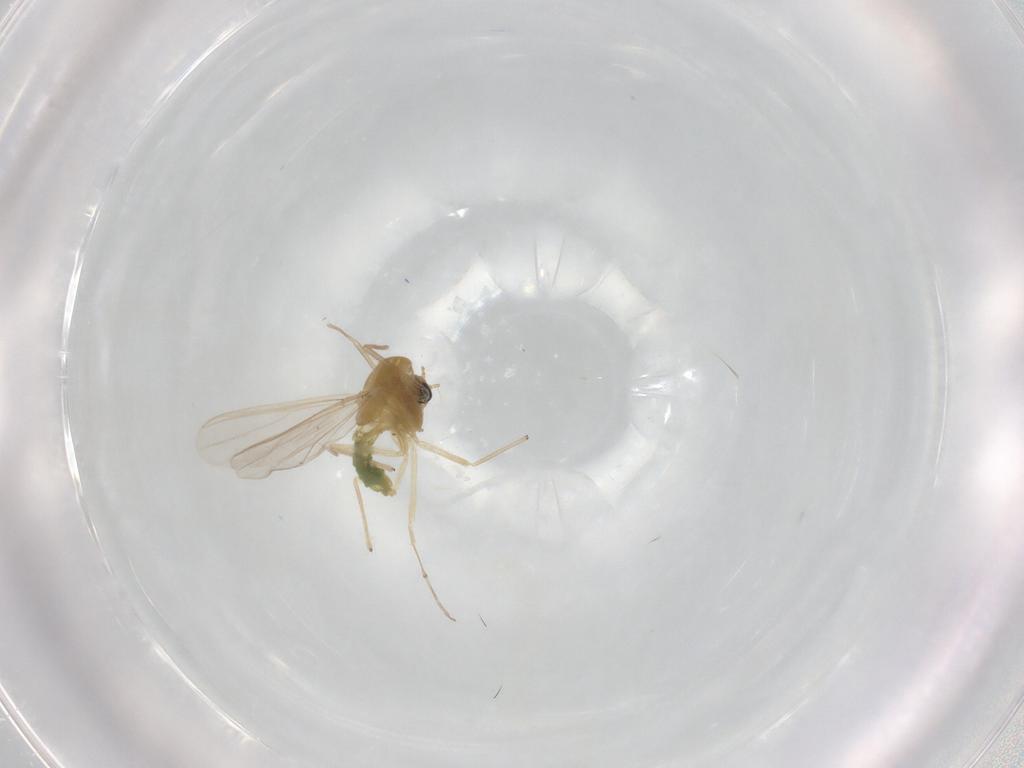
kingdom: Animalia
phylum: Arthropoda
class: Insecta
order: Diptera
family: Chironomidae
